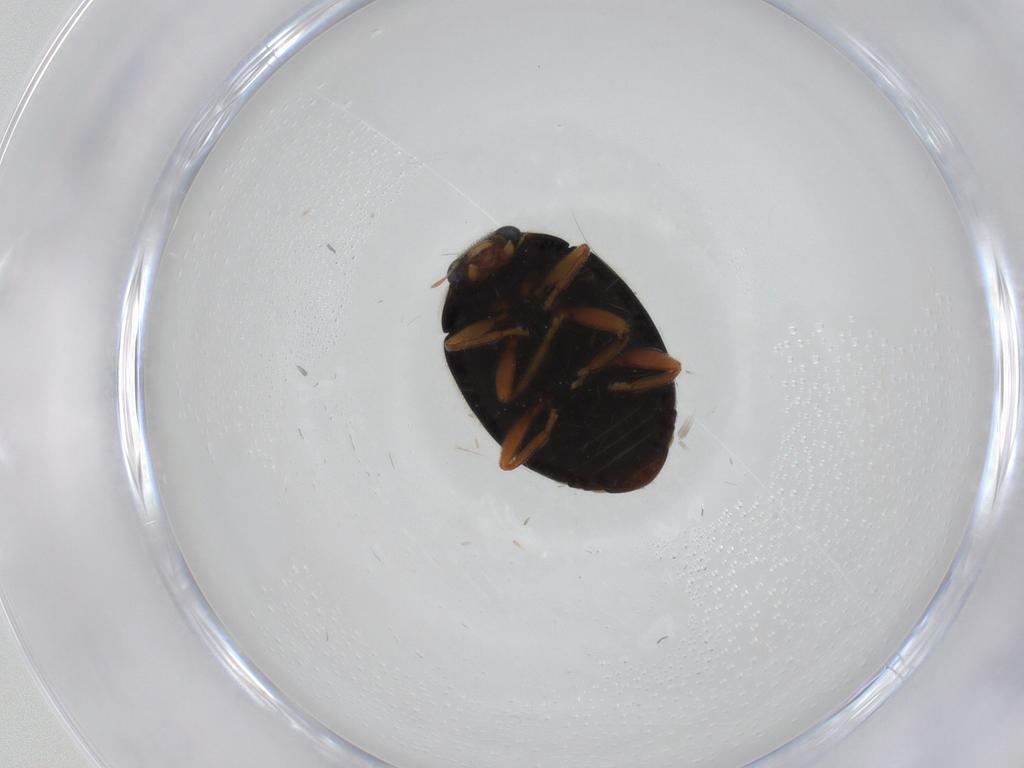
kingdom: Animalia
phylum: Arthropoda
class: Insecta
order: Coleoptera
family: Coccinellidae
